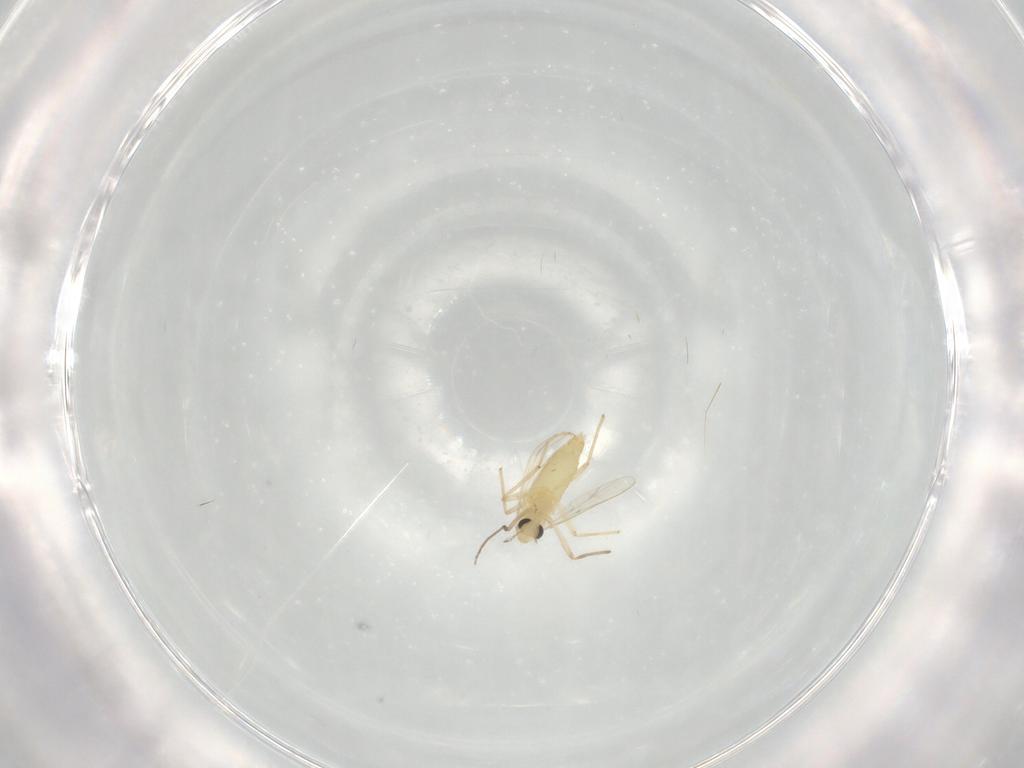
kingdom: Animalia
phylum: Arthropoda
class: Insecta
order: Diptera
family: Chironomidae
